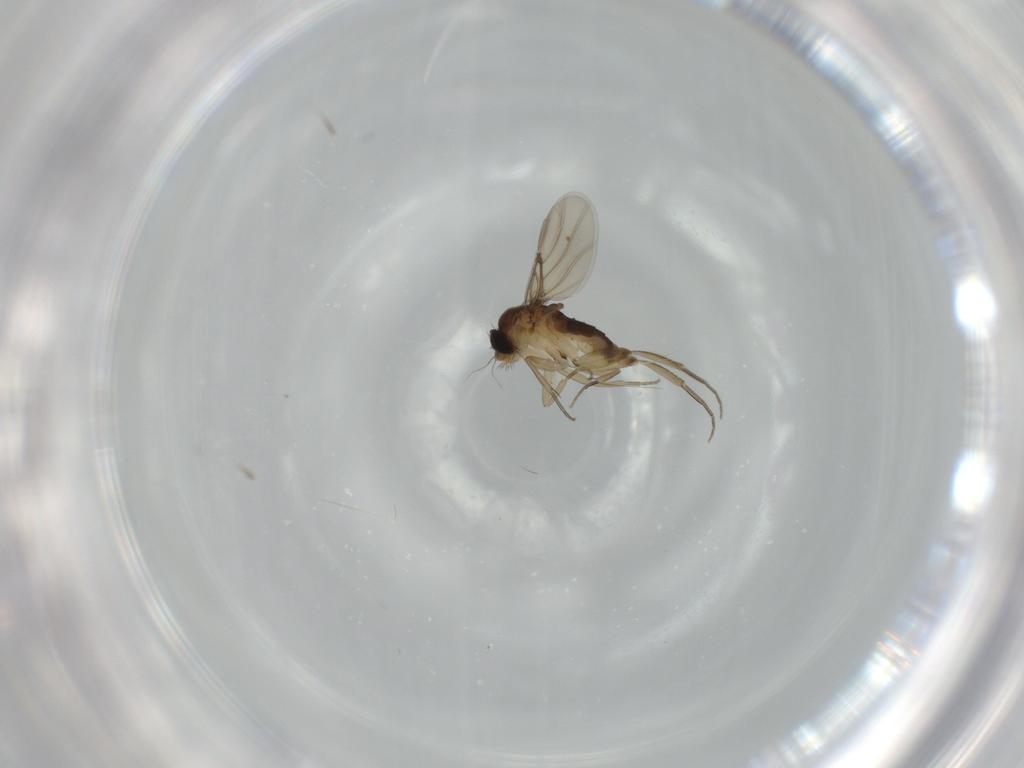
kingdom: Animalia
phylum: Arthropoda
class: Insecta
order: Diptera
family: Phoridae
